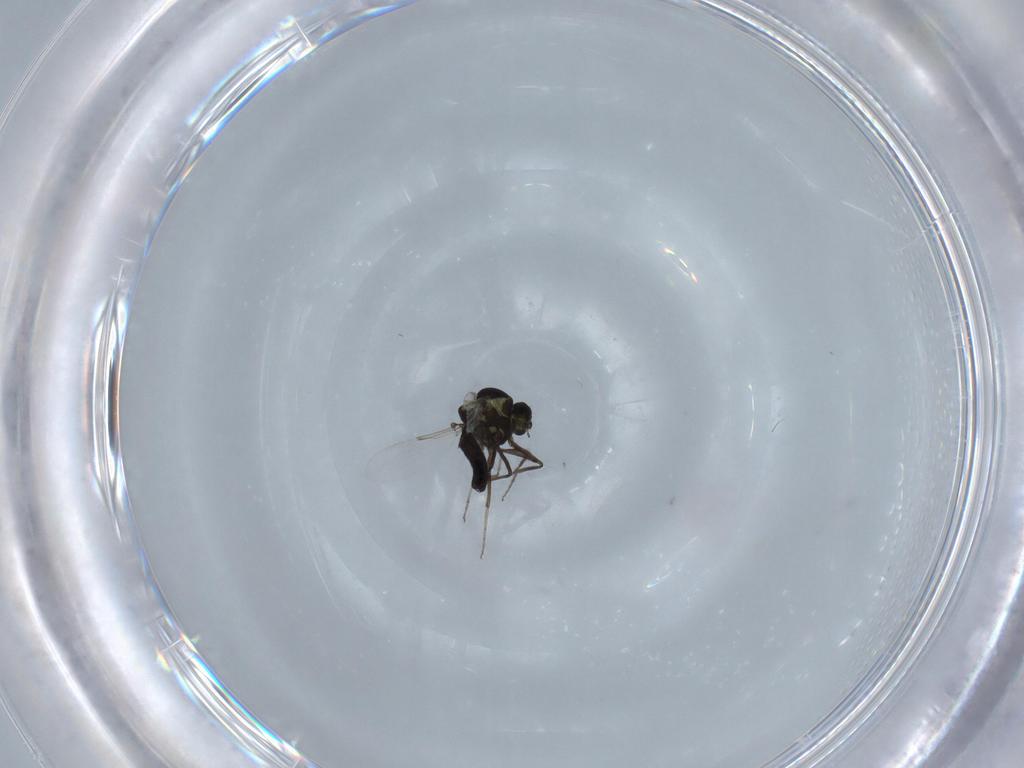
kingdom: Animalia
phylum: Arthropoda
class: Insecta
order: Diptera
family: Ceratopogonidae
